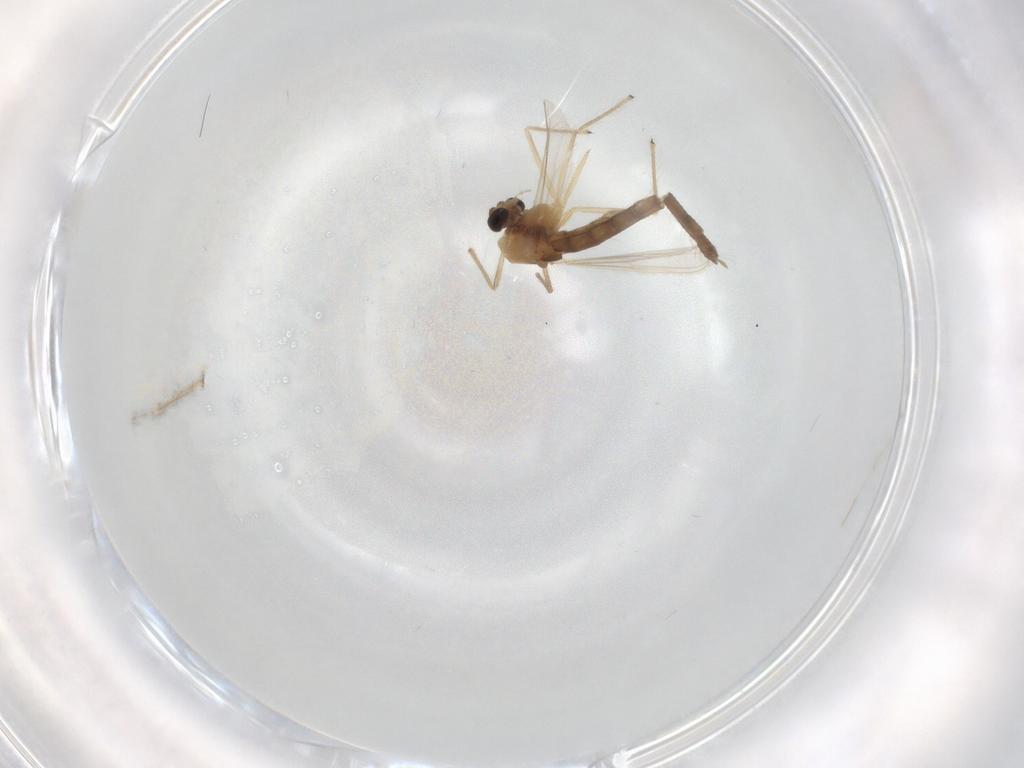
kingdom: Animalia
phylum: Arthropoda
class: Insecta
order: Diptera
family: Chironomidae
